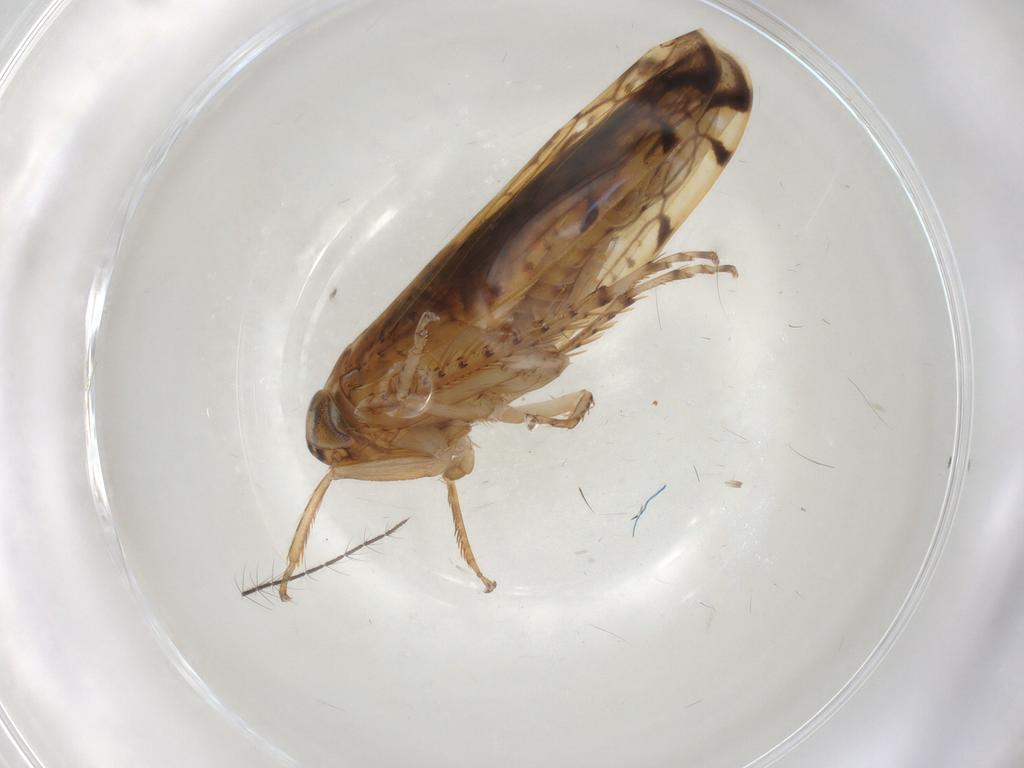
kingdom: Animalia
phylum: Arthropoda
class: Insecta
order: Hemiptera
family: Cicadellidae
